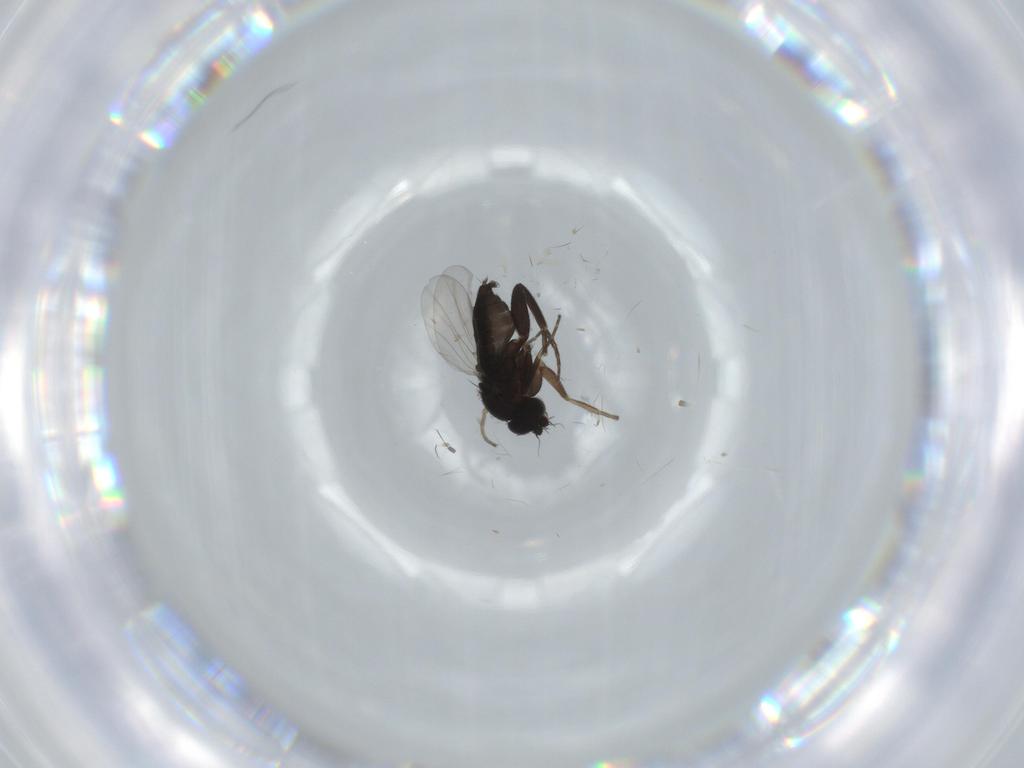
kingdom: Animalia
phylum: Arthropoda
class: Insecta
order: Diptera
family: Phoridae
